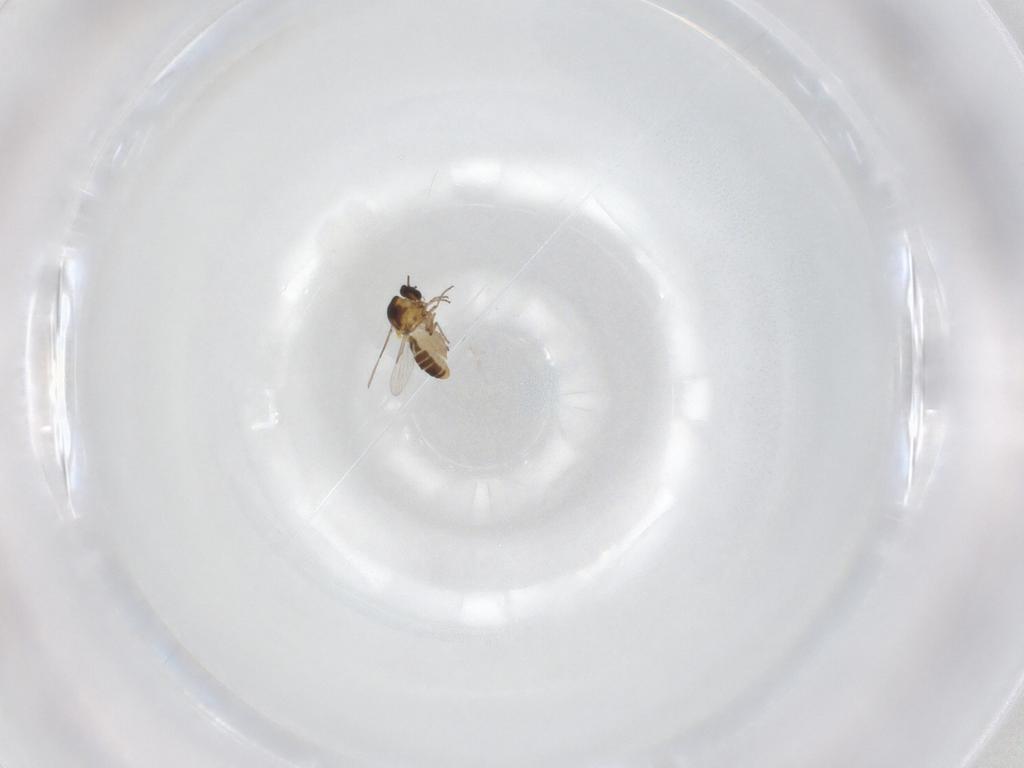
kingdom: Animalia
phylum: Arthropoda
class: Insecta
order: Diptera
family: Ceratopogonidae
